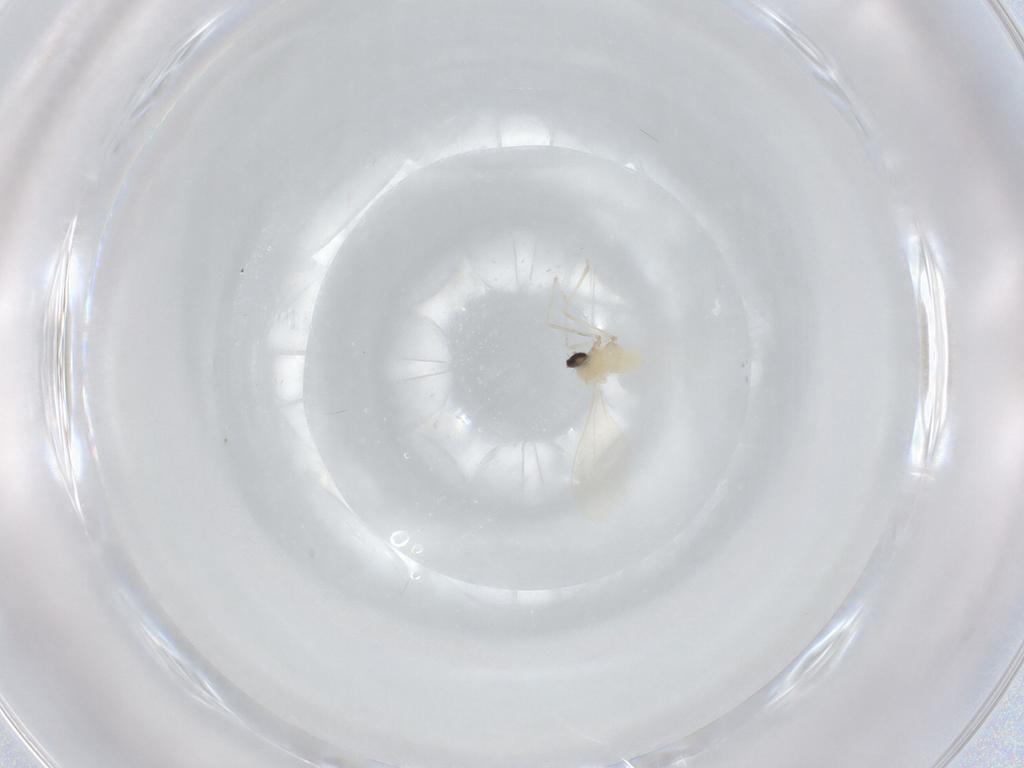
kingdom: Animalia
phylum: Arthropoda
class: Insecta
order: Diptera
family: Cecidomyiidae
